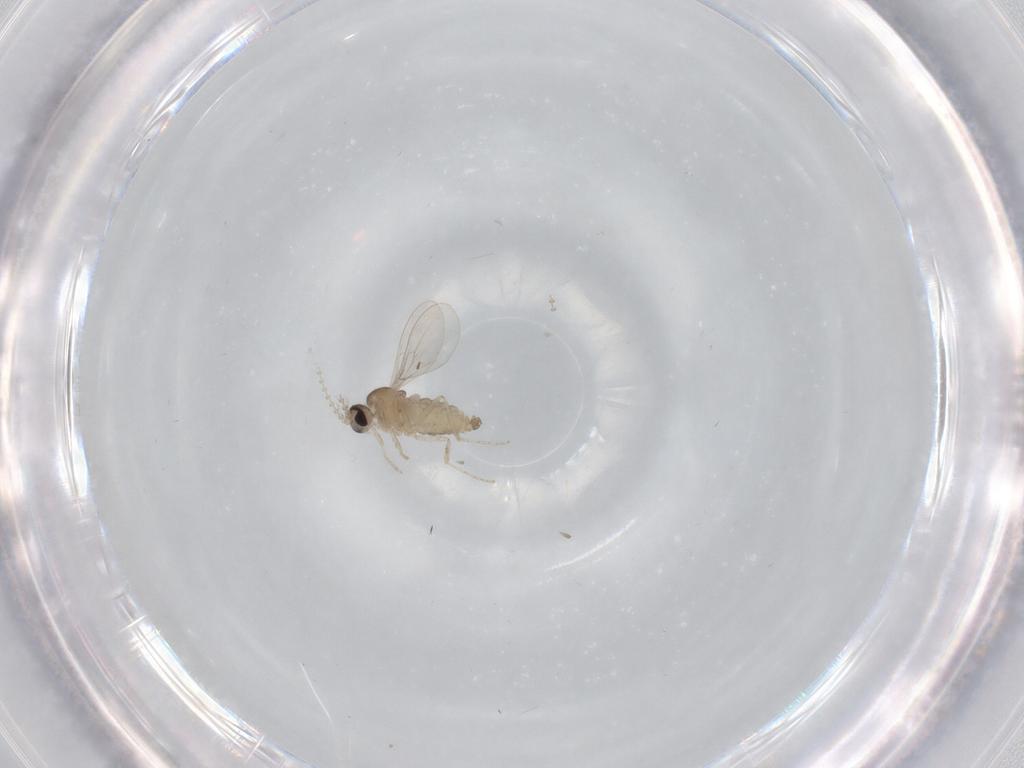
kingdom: Animalia
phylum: Arthropoda
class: Insecta
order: Diptera
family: Cecidomyiidae
